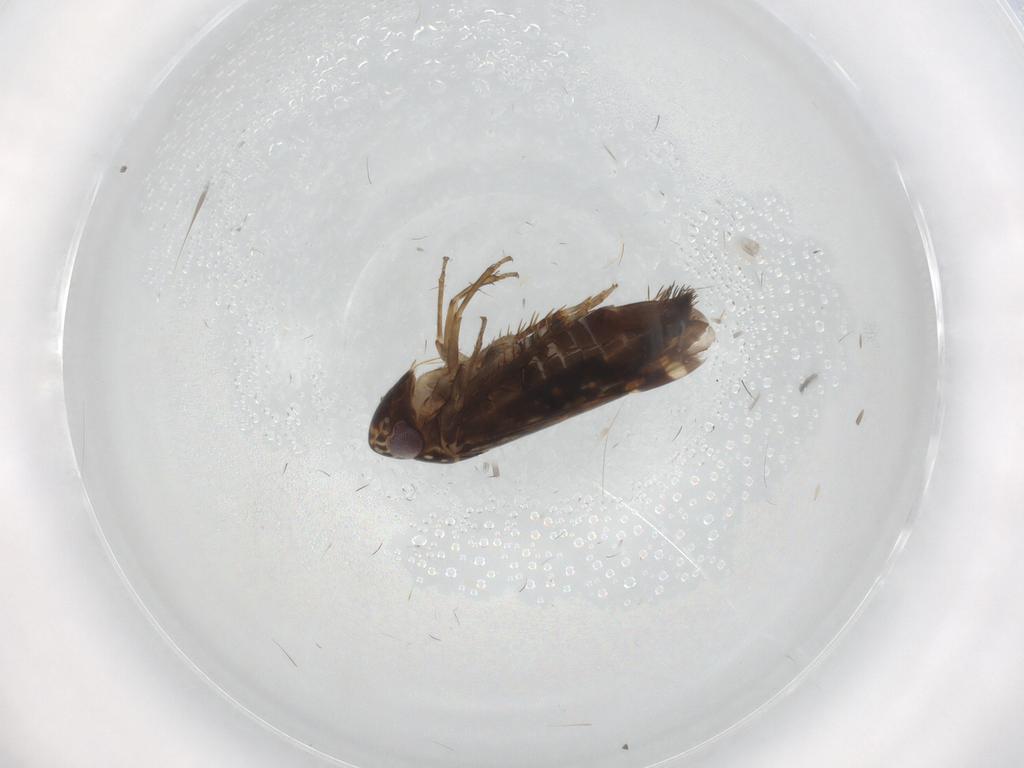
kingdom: Animalia
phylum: Arthropoda
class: Insecta
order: Hemiptera
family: Cicadellidae
